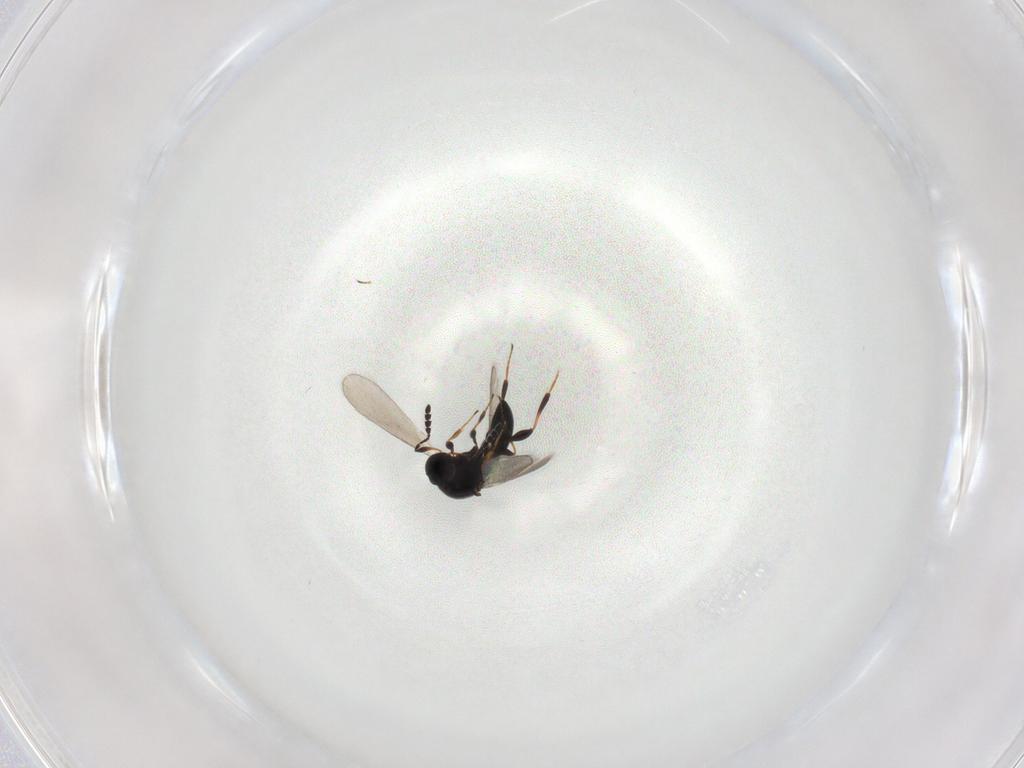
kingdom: Animalia
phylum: Arthropoda
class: Insecta
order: Hymenoptera
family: Platygastridae
